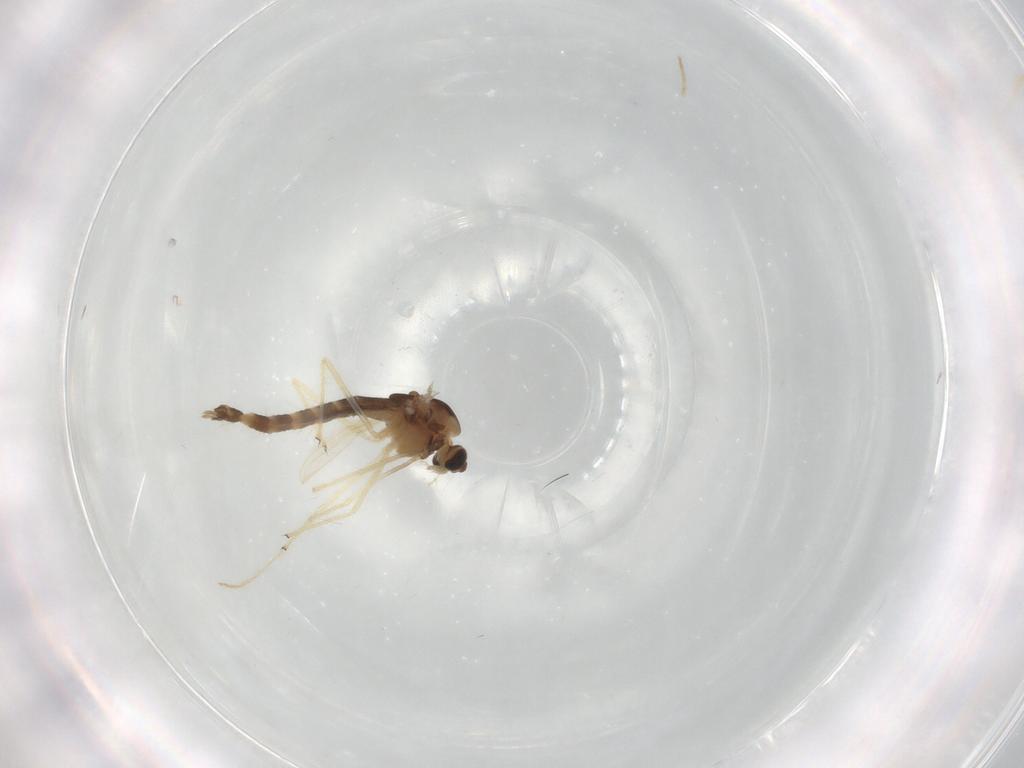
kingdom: Animalia
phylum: Arthropoda
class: Insecta
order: Diptera
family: Chironomidae
